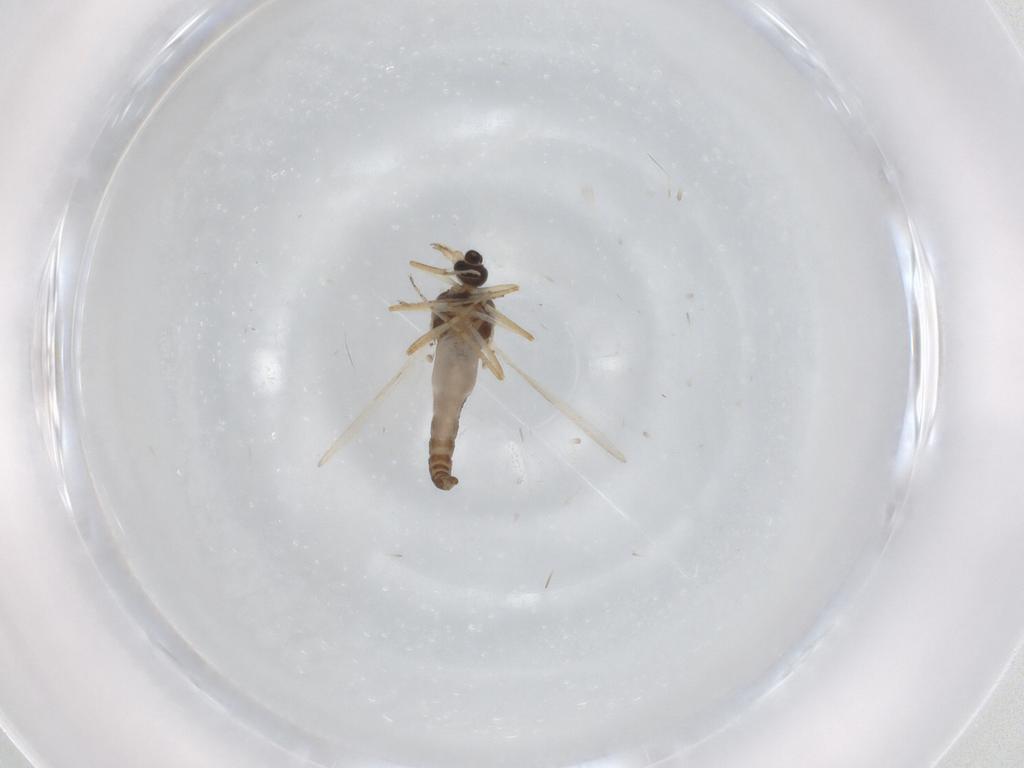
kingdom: Animalia
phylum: Arthropoda
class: Insecta
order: Diptera
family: Ceratopogonidae
